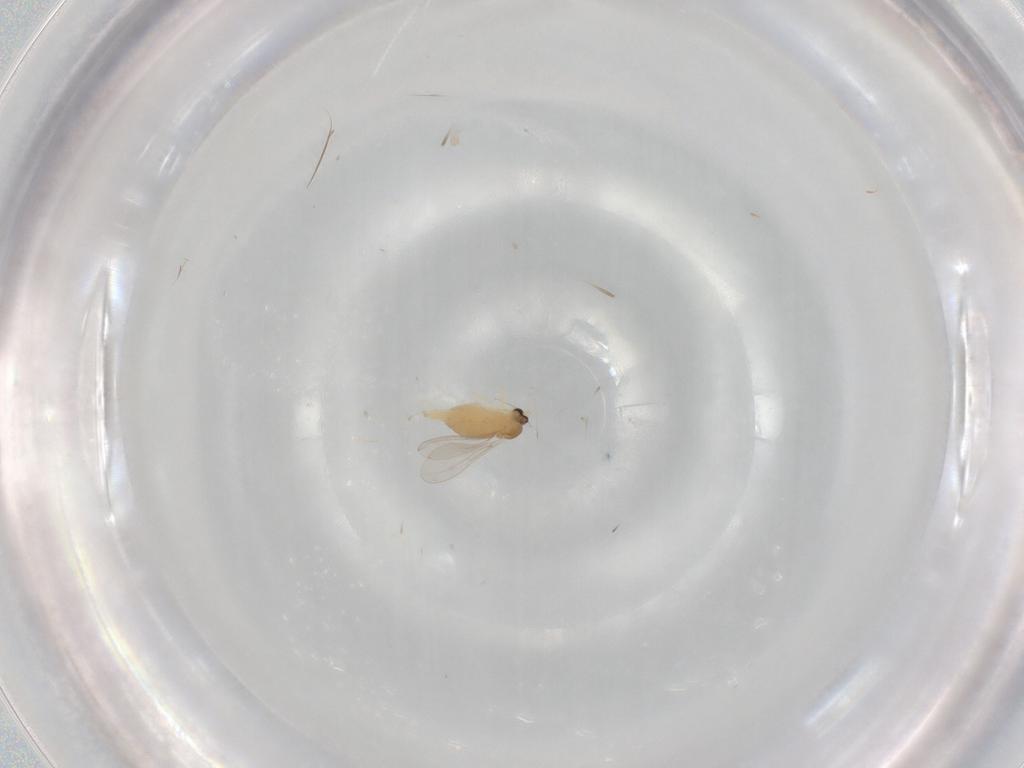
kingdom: Animalia
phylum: Arthropoda
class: Insecta
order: Diptera
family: Cecidomyiidae
